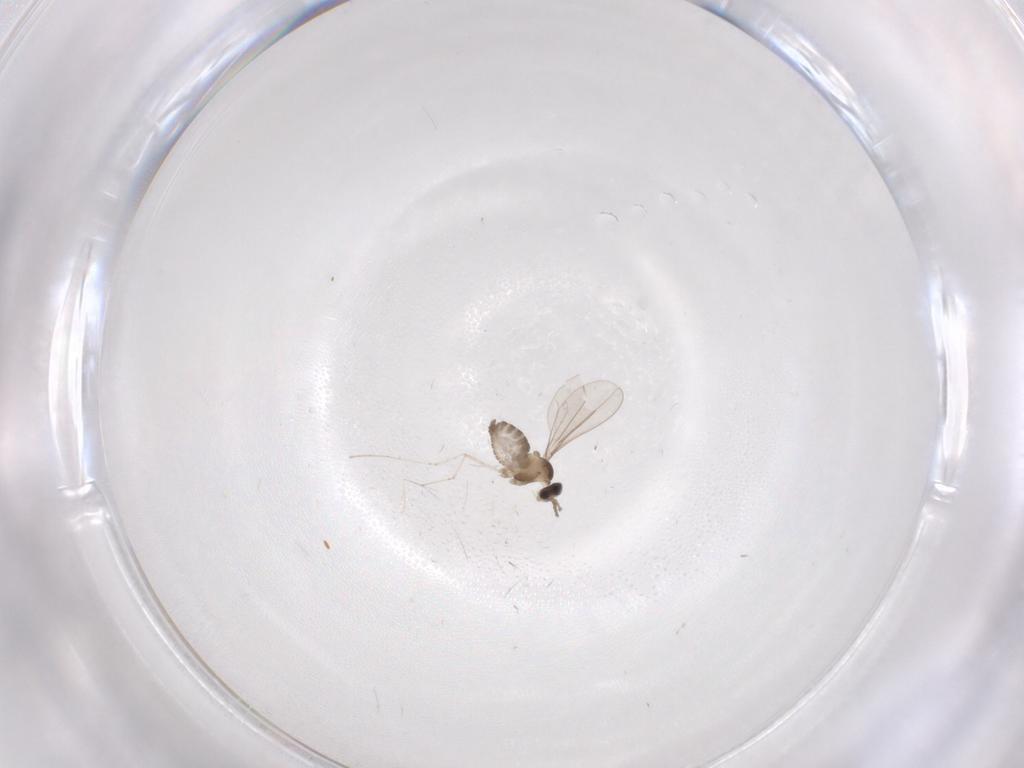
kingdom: Animalia
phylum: Arthropoda
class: Insecta
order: Diptera
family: Cecidomyiidae
